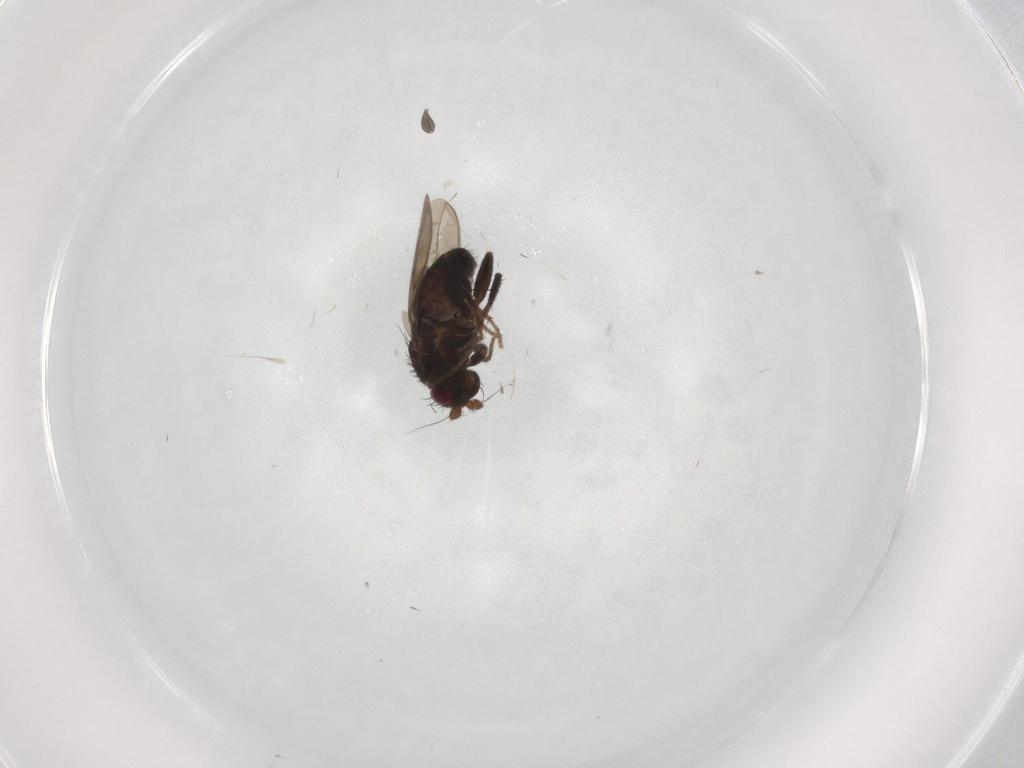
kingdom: Animalia
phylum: Arthropoda
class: Insecta
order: Diptera
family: Sphaeroceridae
